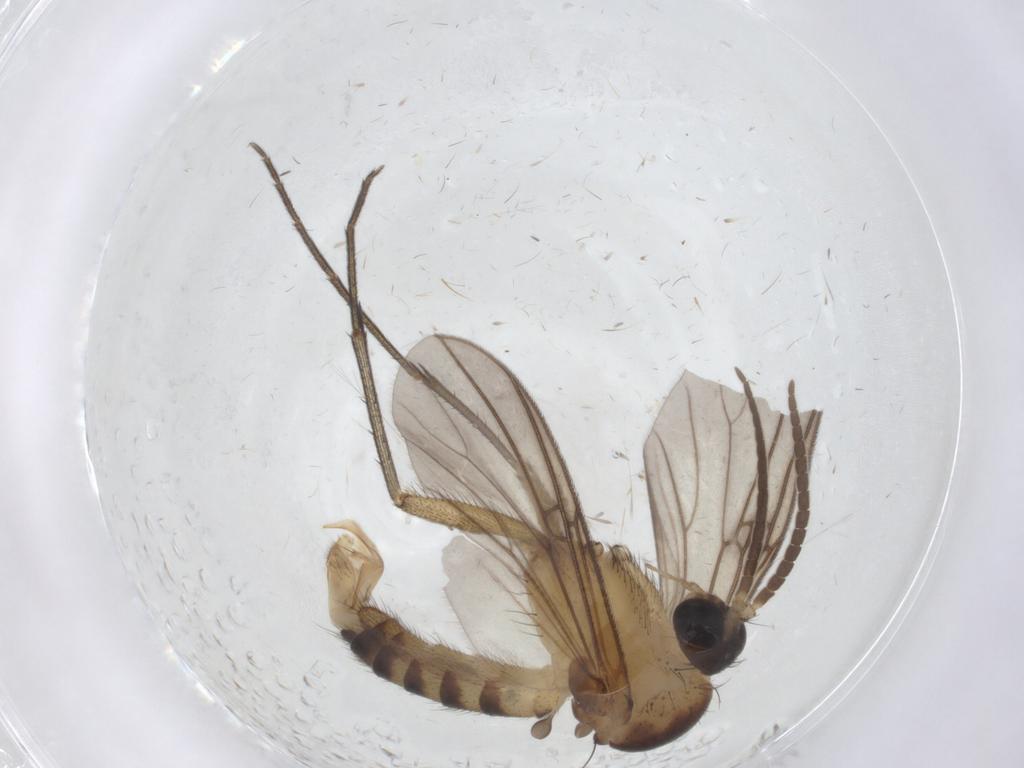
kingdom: Animalia
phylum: Arthropoda
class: Insecta
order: Diptera
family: Mycetophilidae
